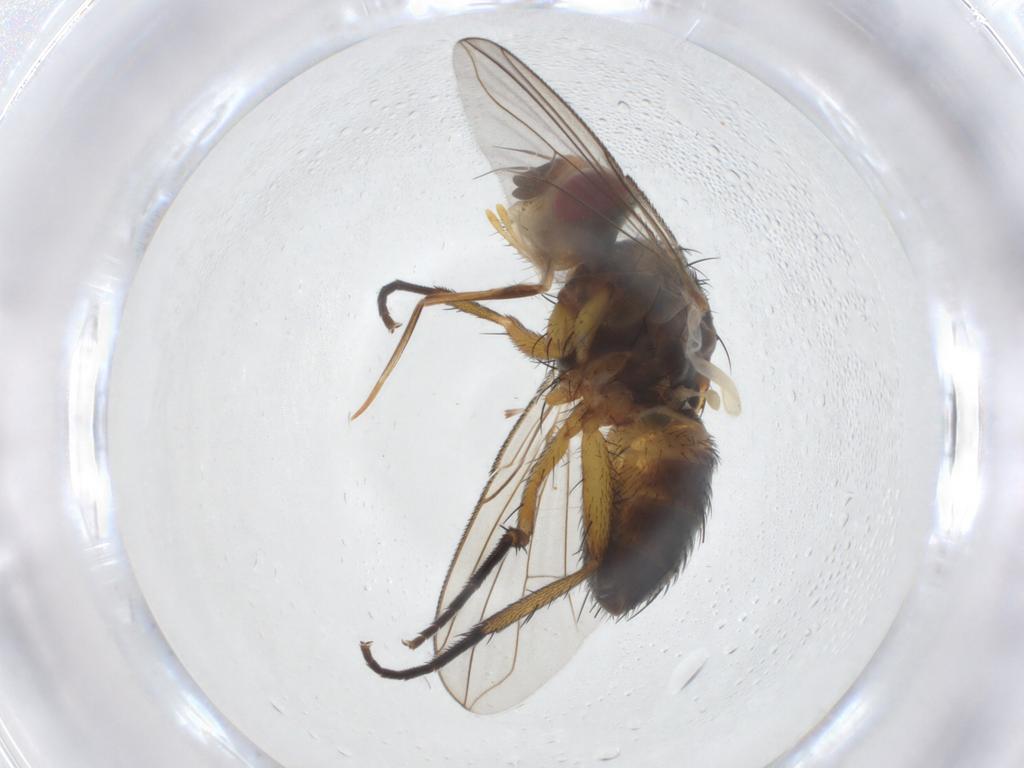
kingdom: Animalia
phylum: Arthropoda
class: Insecta
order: Diptera
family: Tachinidae
